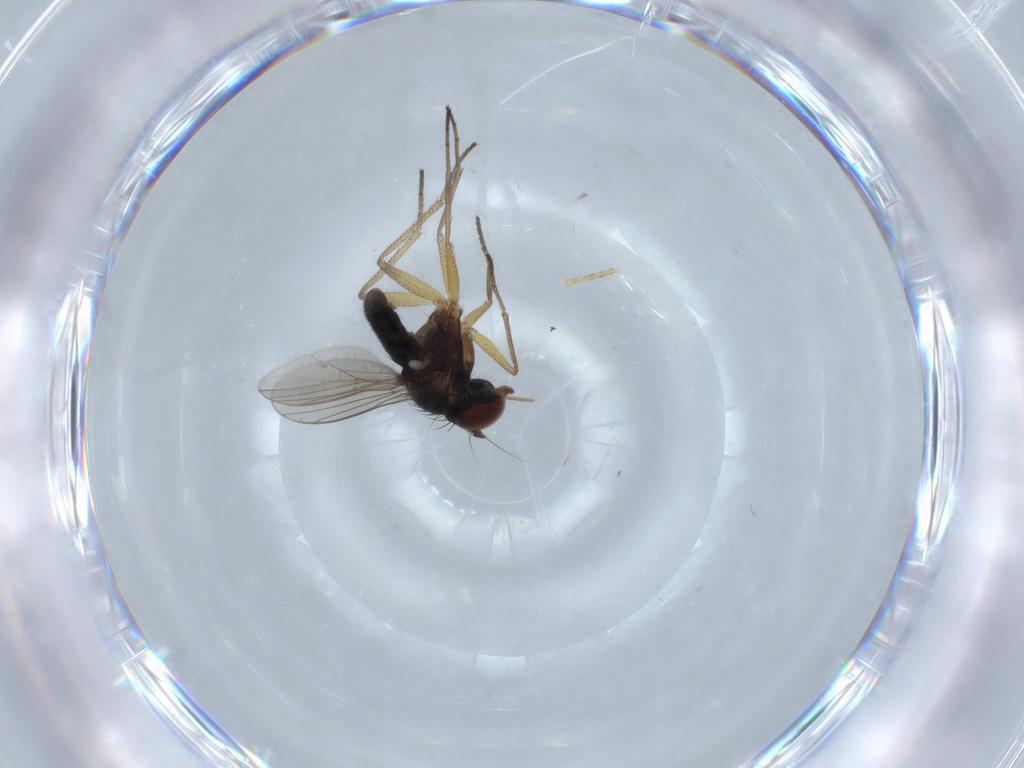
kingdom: Animalia
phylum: Arthropoda
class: Insecta
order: Diptera
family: Dolichopodidae
